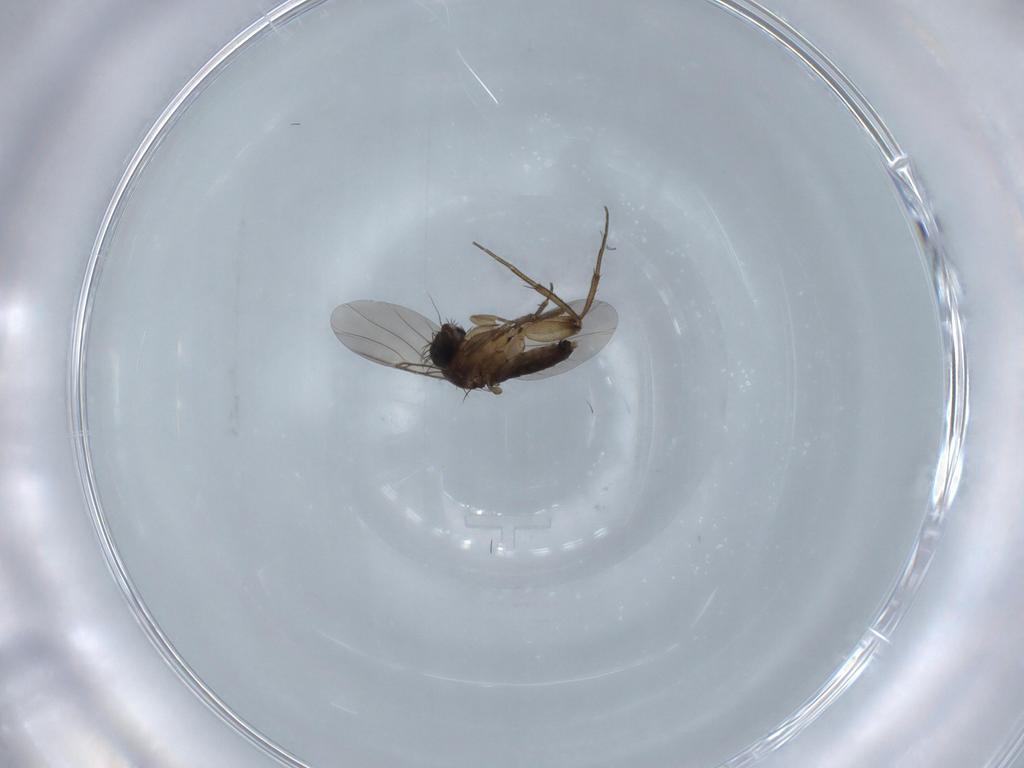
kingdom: Animalia
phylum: Arthropoda
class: Insecta
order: Diptera
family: Phoridae
